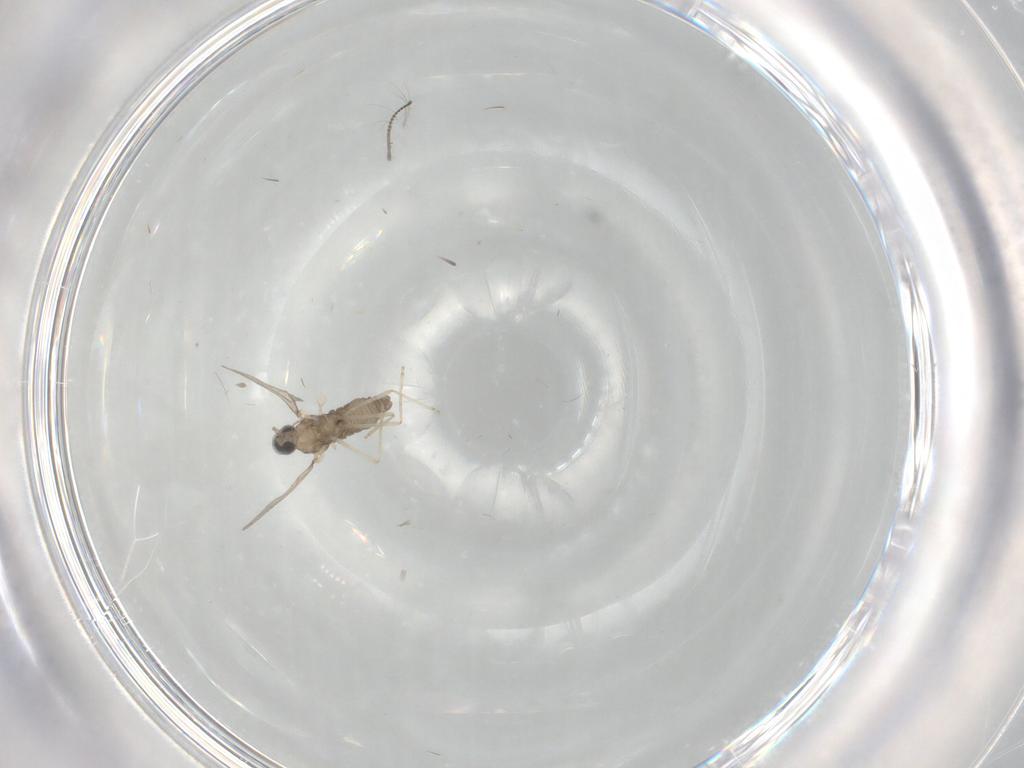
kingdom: Animalia
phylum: Arthropoda
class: Insecta
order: Diptera
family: Cecidomyiidae
